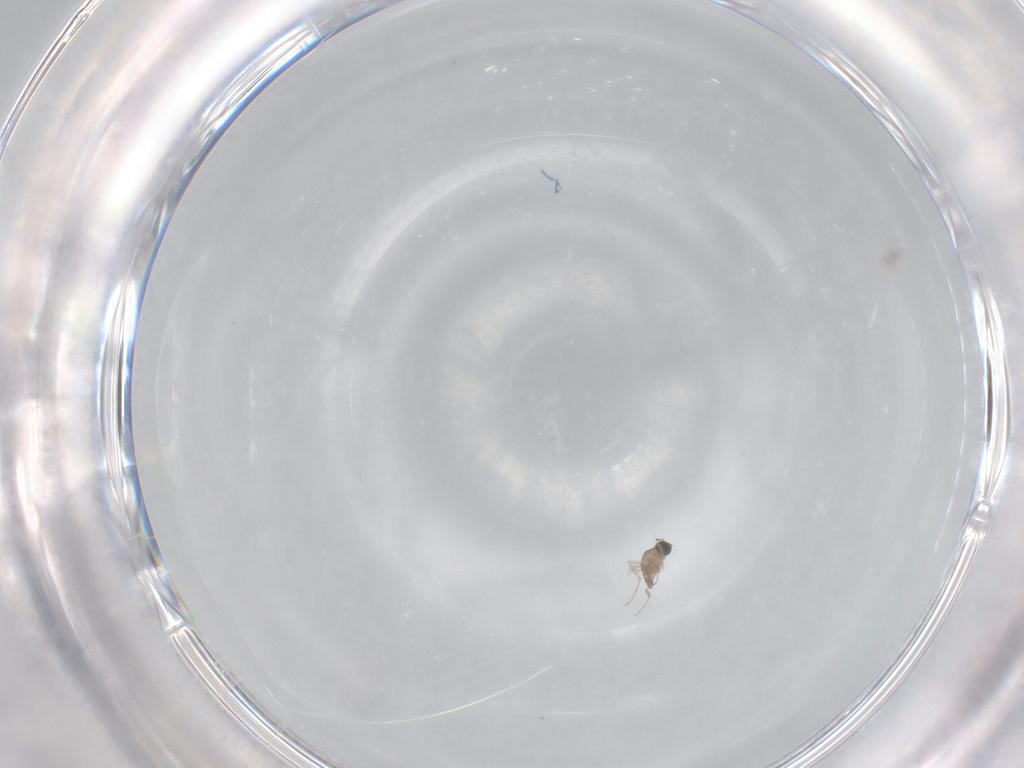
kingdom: Animalia
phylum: Arthropoda
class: Insecta
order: Diptera
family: Cecidomyiidae
